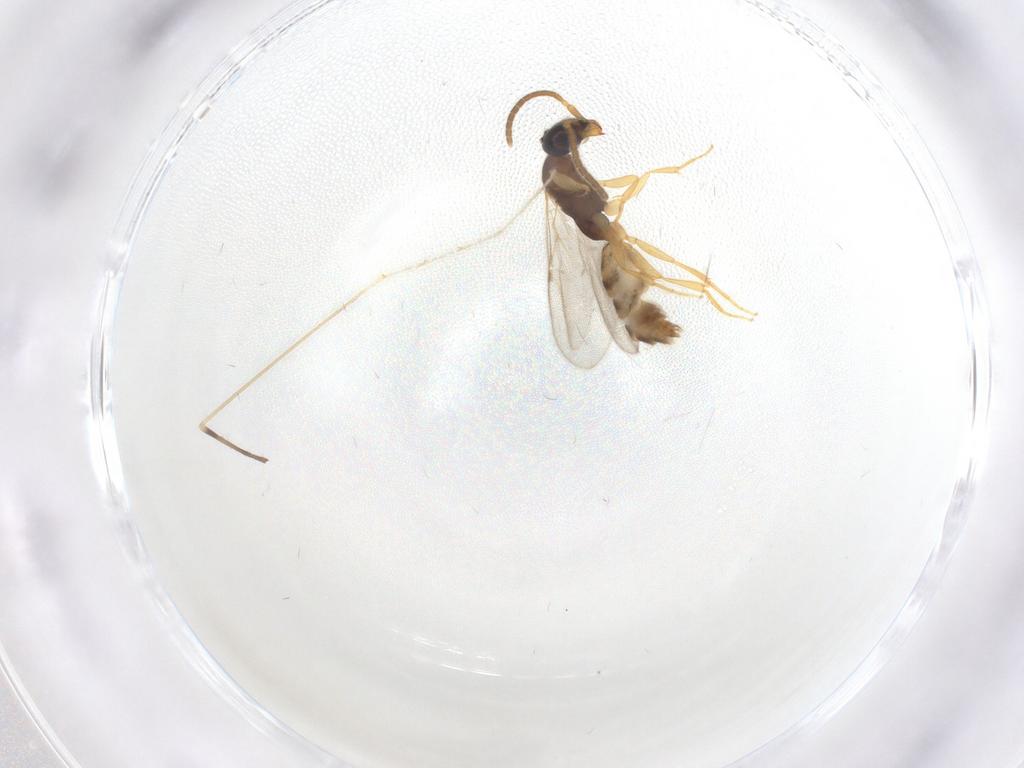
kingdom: Animalia
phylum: Arthropoda
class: Insecta
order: Hymenoptera
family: Bethylidae
